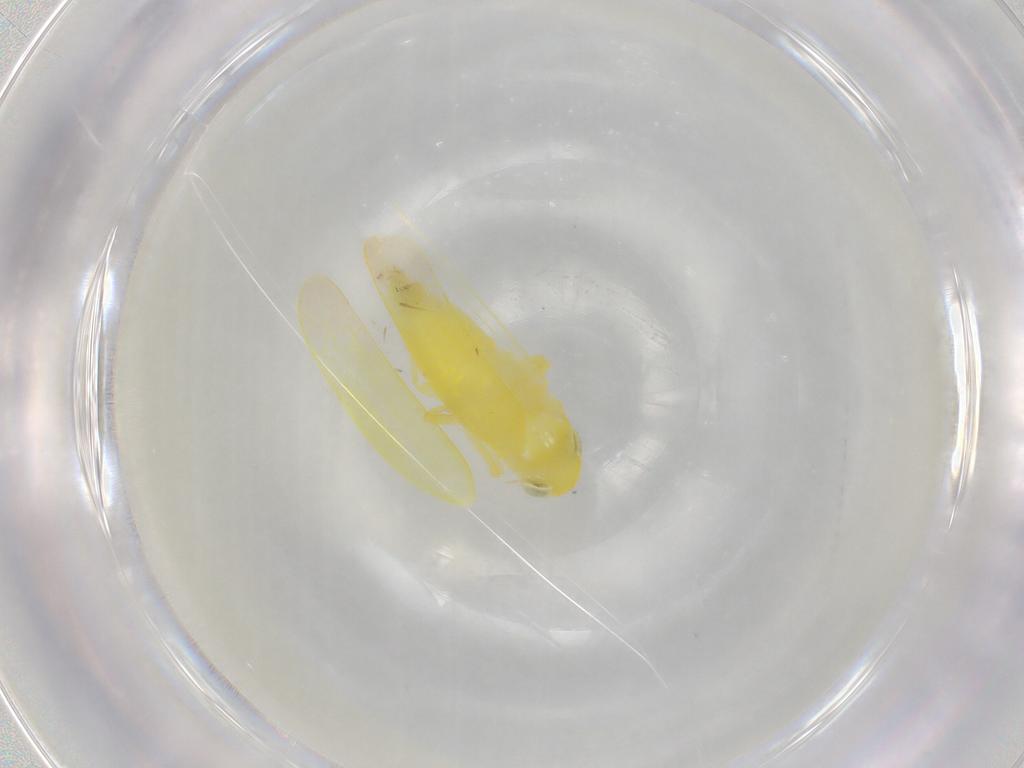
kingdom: Animalia
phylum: Arthropoda
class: Insecta
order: Hemiptera
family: Cicadellidae
